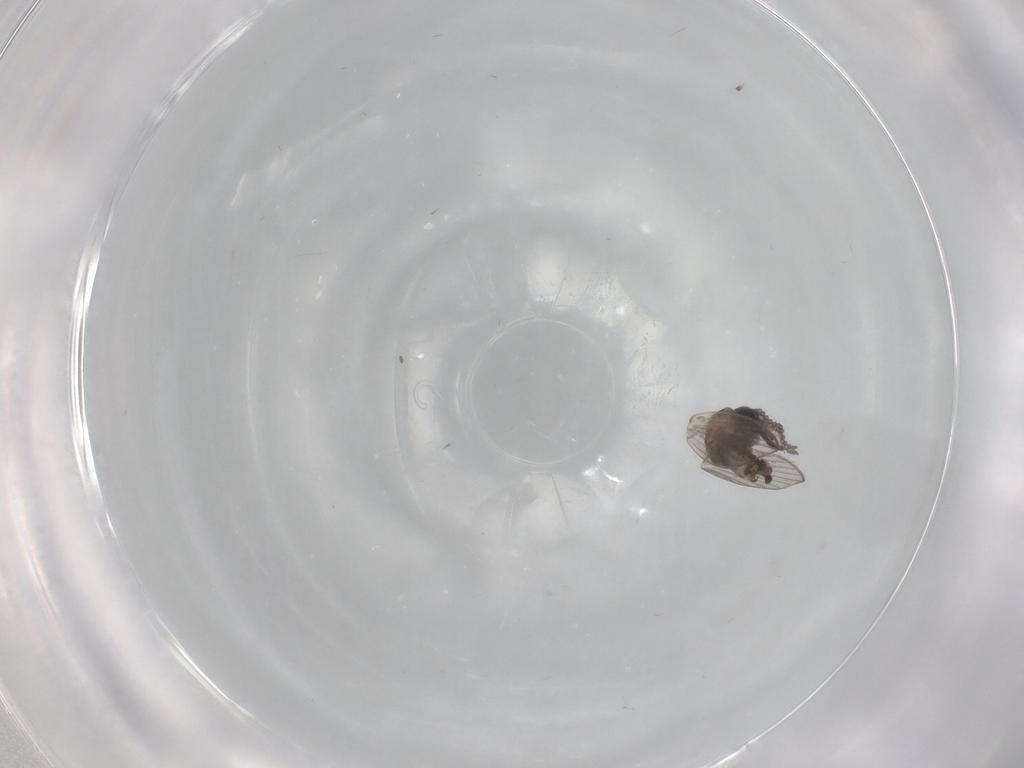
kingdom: Animalia
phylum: Arthropoda
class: Insecta
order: Diptera
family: Psychodidae
